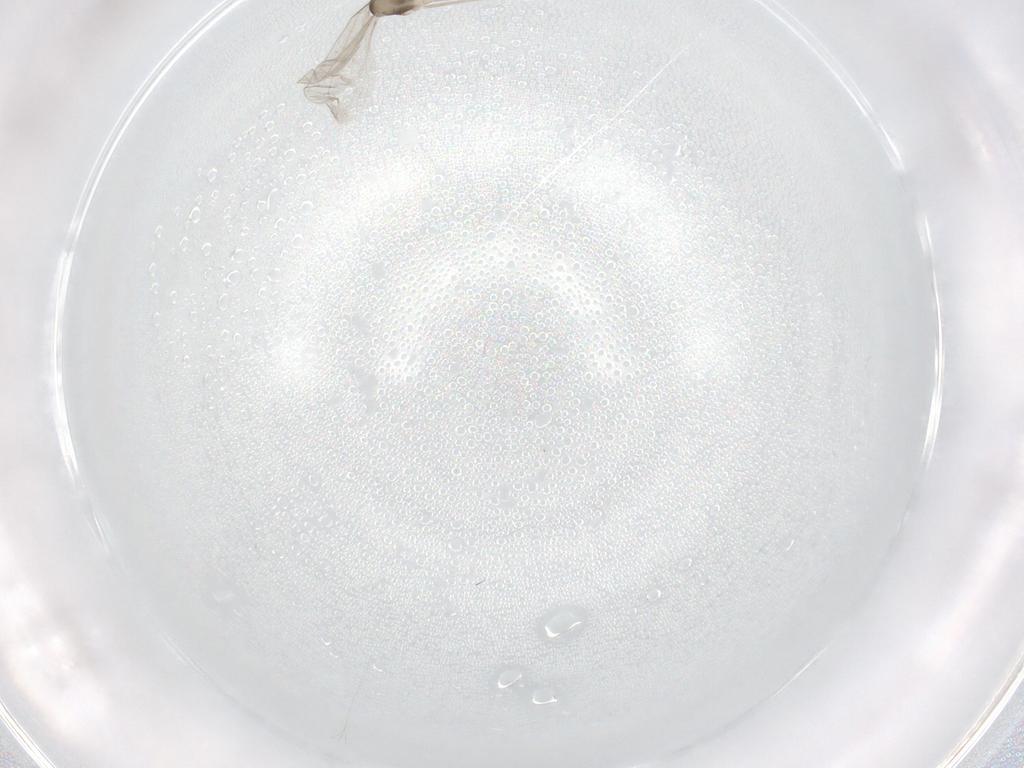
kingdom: Animalia
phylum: Arthropoda
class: Insecta
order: Diptera
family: Cecidomyiidae
